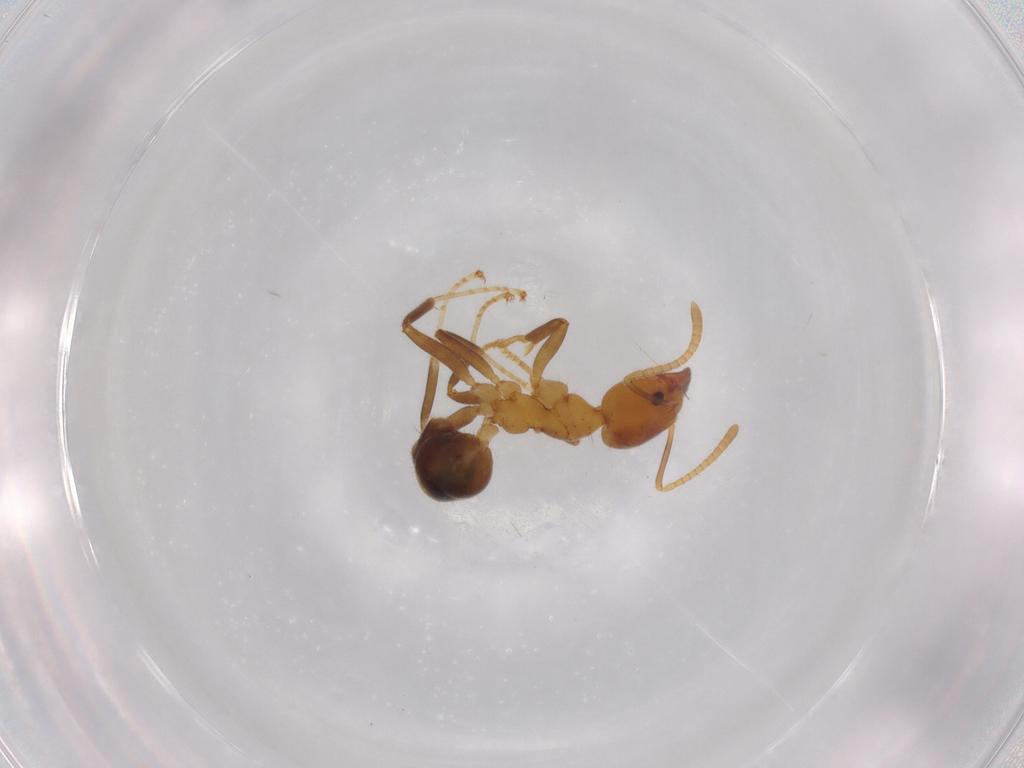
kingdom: Animalia
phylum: Arthropoda
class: Insecta
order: Hymenoptera
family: Formicidae
